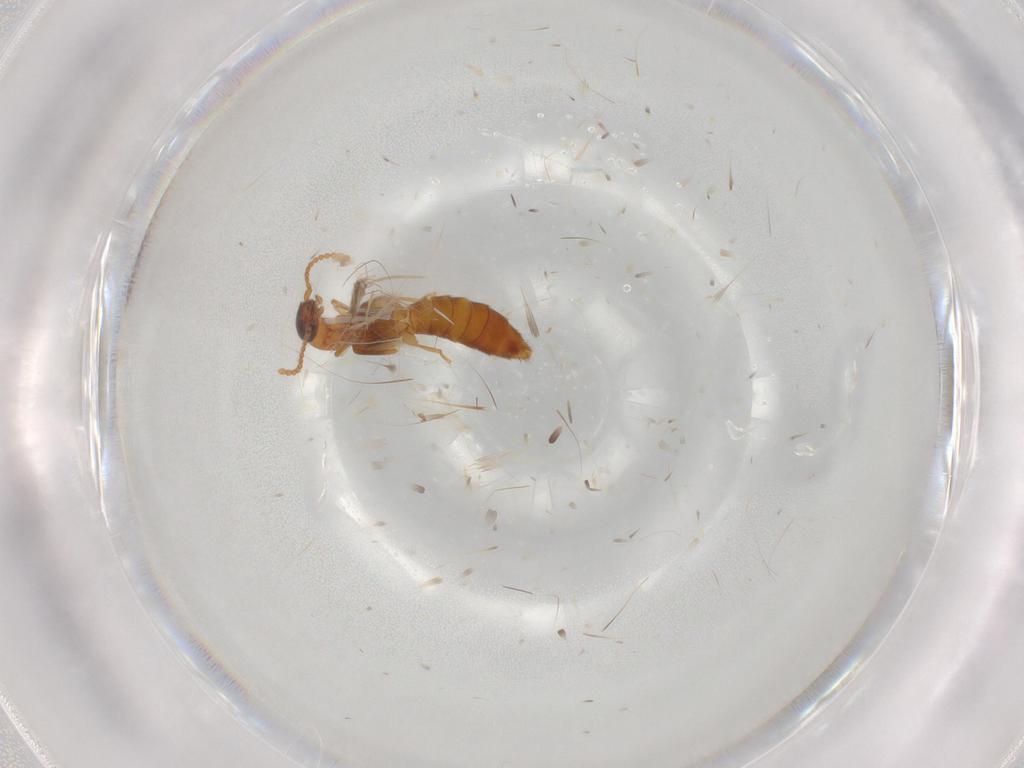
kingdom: Animalia
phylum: Arthropoda
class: Insecta
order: Coleoptera
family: Staphylinidae
